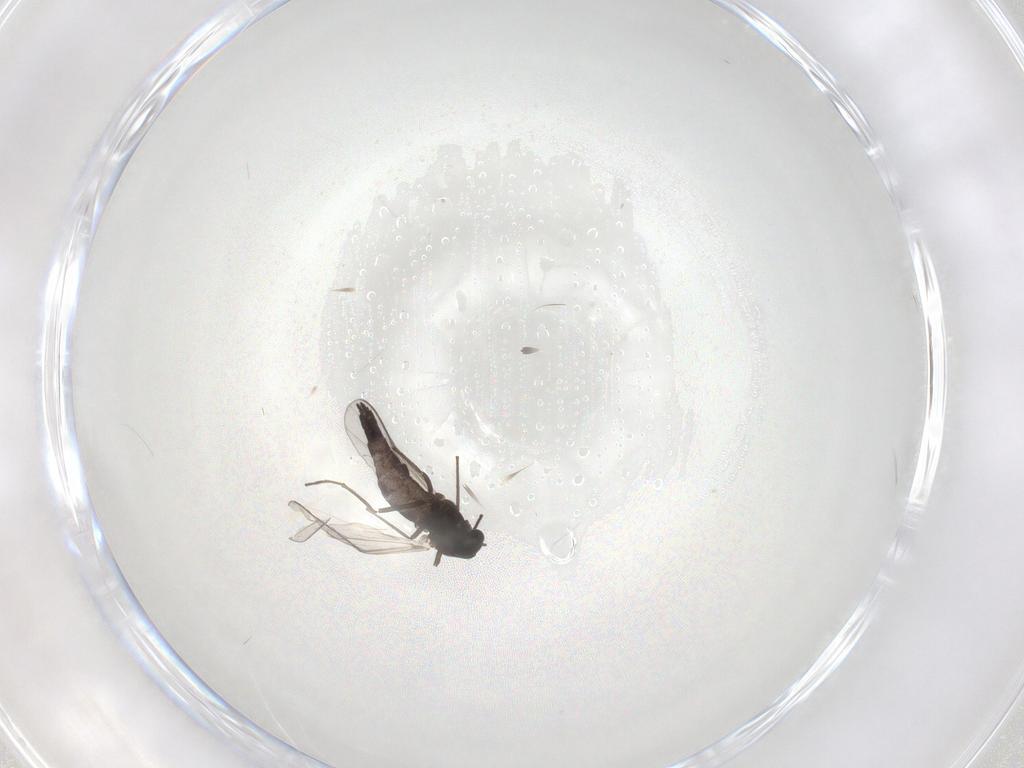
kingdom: Animalia
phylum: Arthropoda
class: Insecta
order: Diptera
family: Chironomidae
